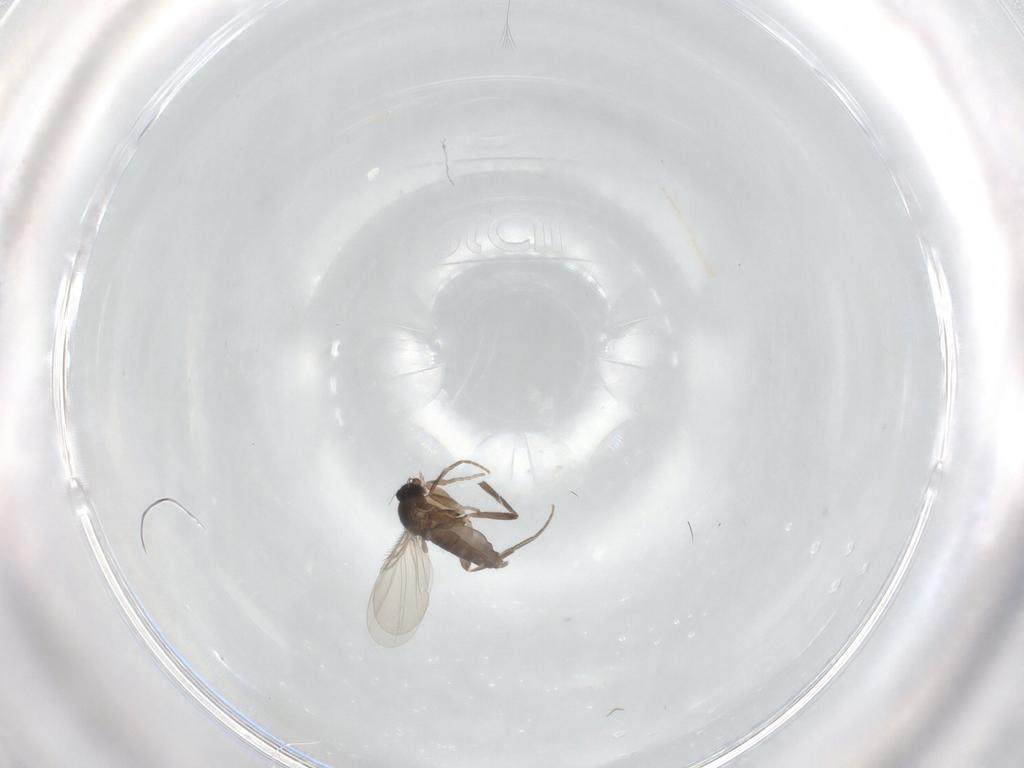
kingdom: Animalia
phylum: Arthropoda
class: Insecta
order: Diptera
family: Phoridae
